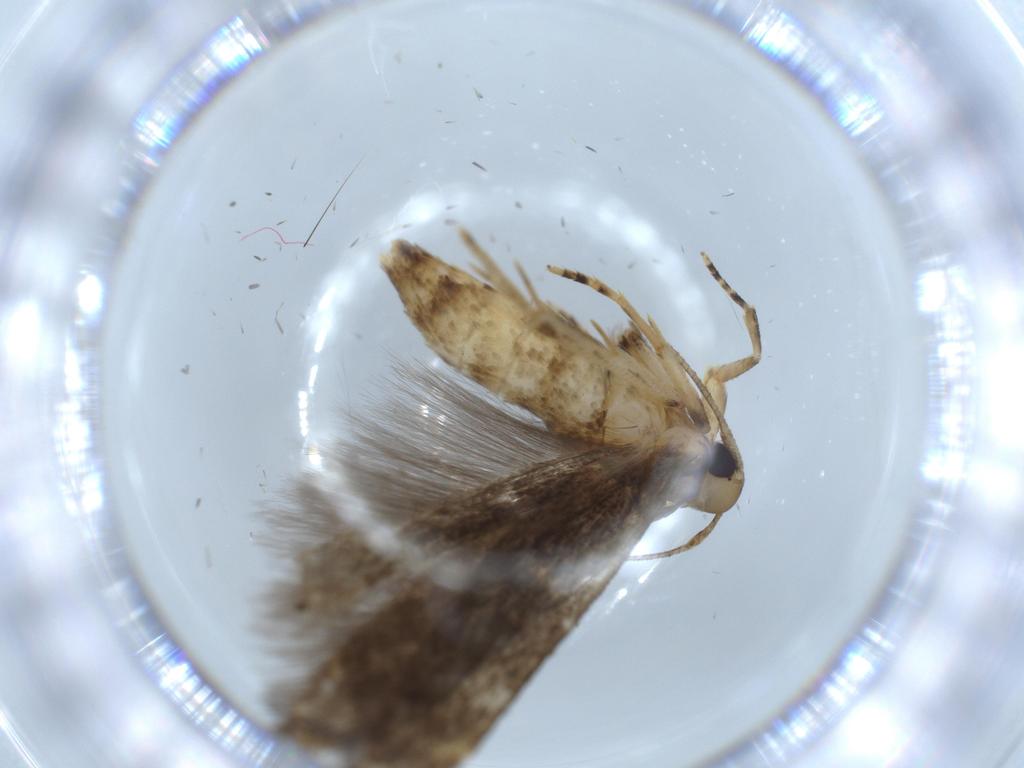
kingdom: Animalia
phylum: Arthropoda
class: Insecta
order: Lepidoptera
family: Cosmopterigidae
